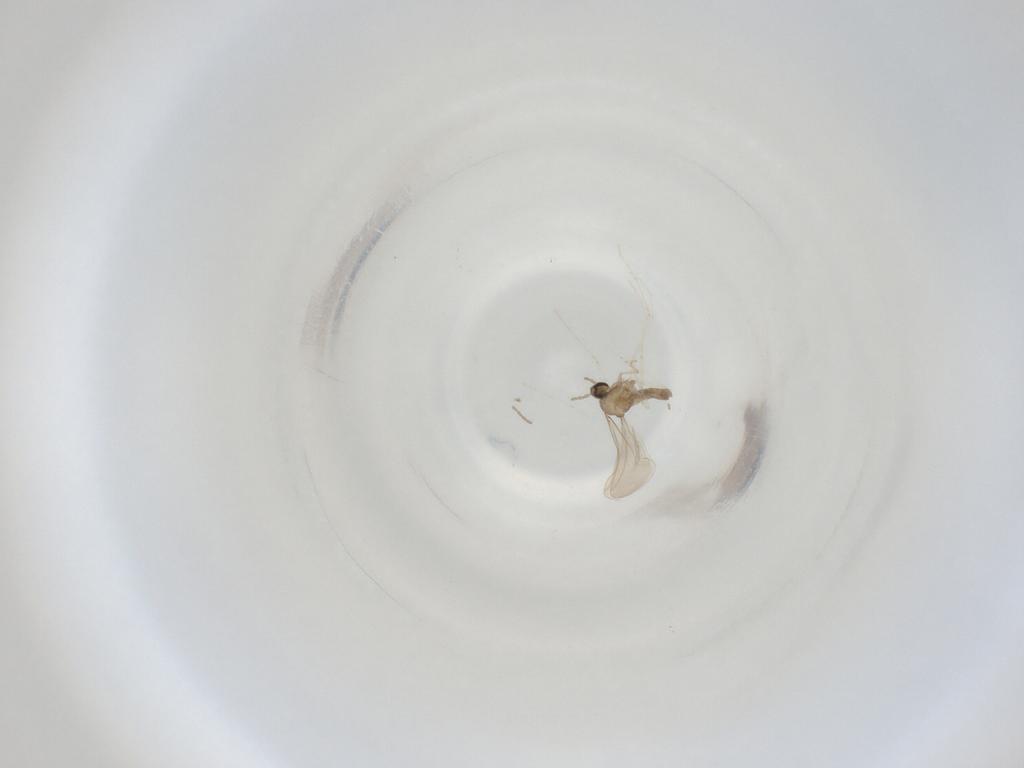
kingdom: Animalia
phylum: Arthropoda
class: Insecta
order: Diptera
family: Cecidomyiidae
